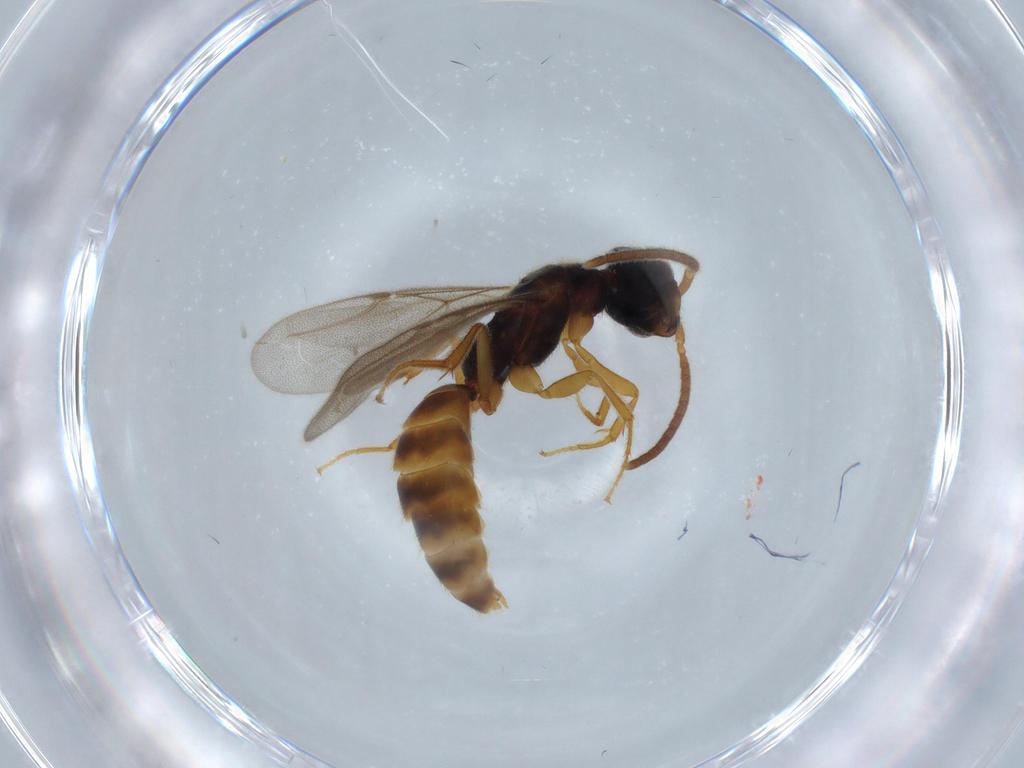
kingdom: Animalia
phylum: Arthropoda
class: Insecta
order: Hymenoptera
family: Bethylidae
